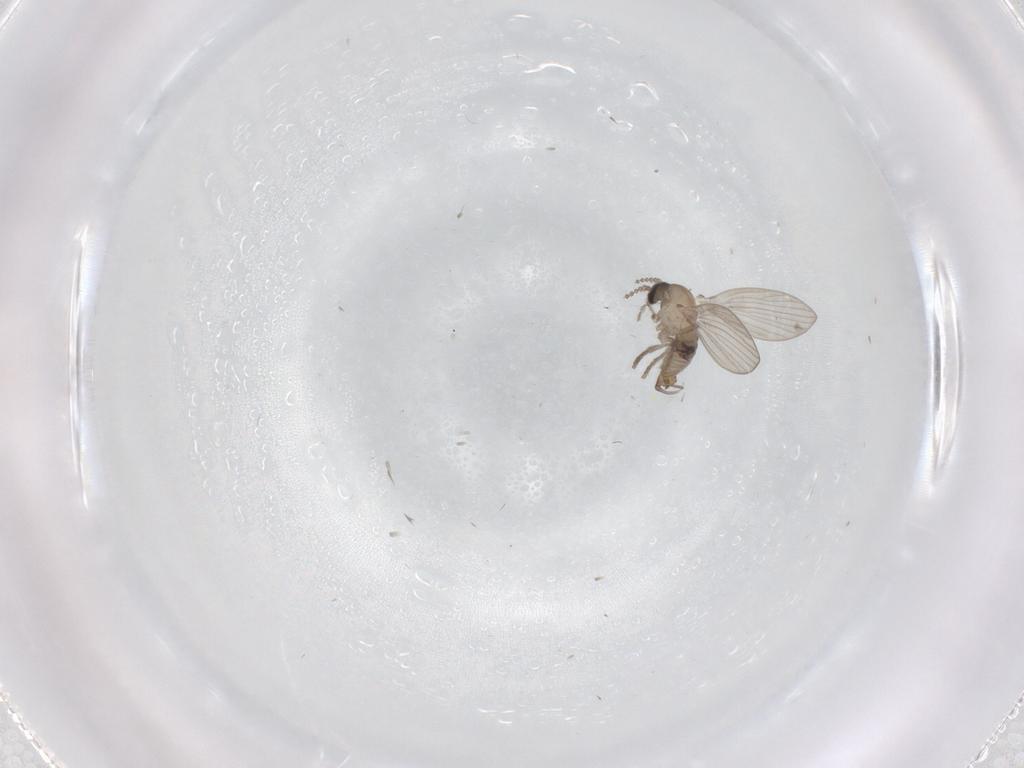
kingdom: Animalia
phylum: Arthropoda
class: Insecta
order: Diptera
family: Psychodidae
